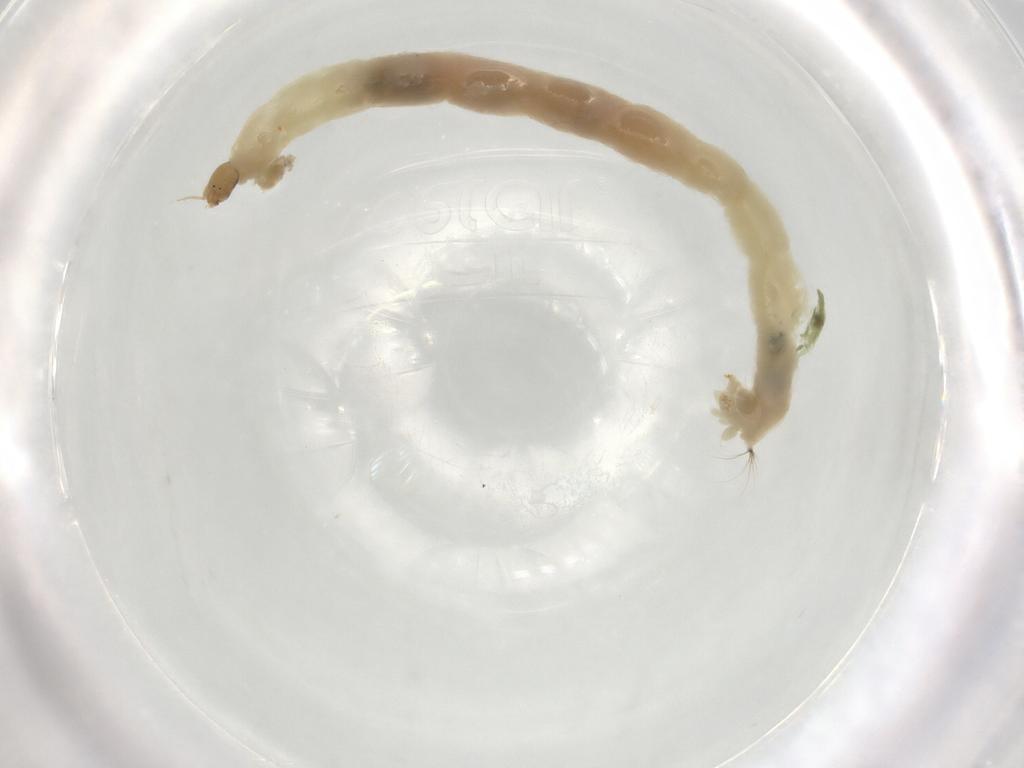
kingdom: Animalia
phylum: Arthropoda
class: Insecta
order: Diptera
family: Chironomidae
